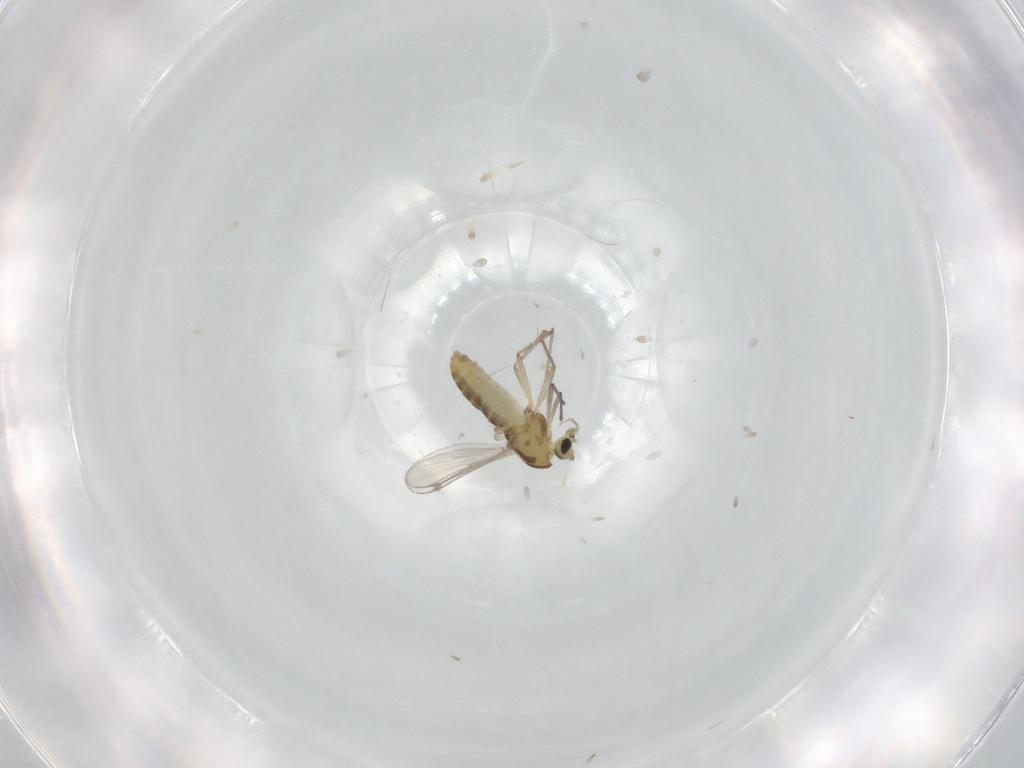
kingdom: Animalia
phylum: Arthropoda
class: Insecta
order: Diptera
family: Chironomidae
